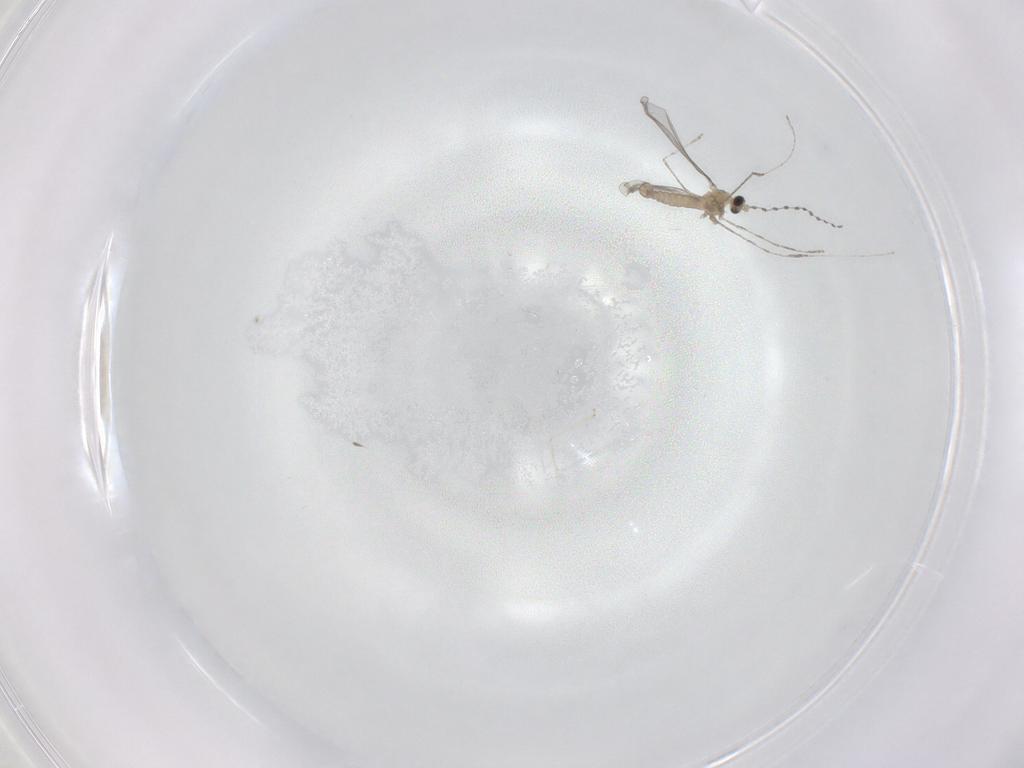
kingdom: Animalia
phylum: Arthropoda
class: Insecta
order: Diptera
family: Cecidomyiidae
